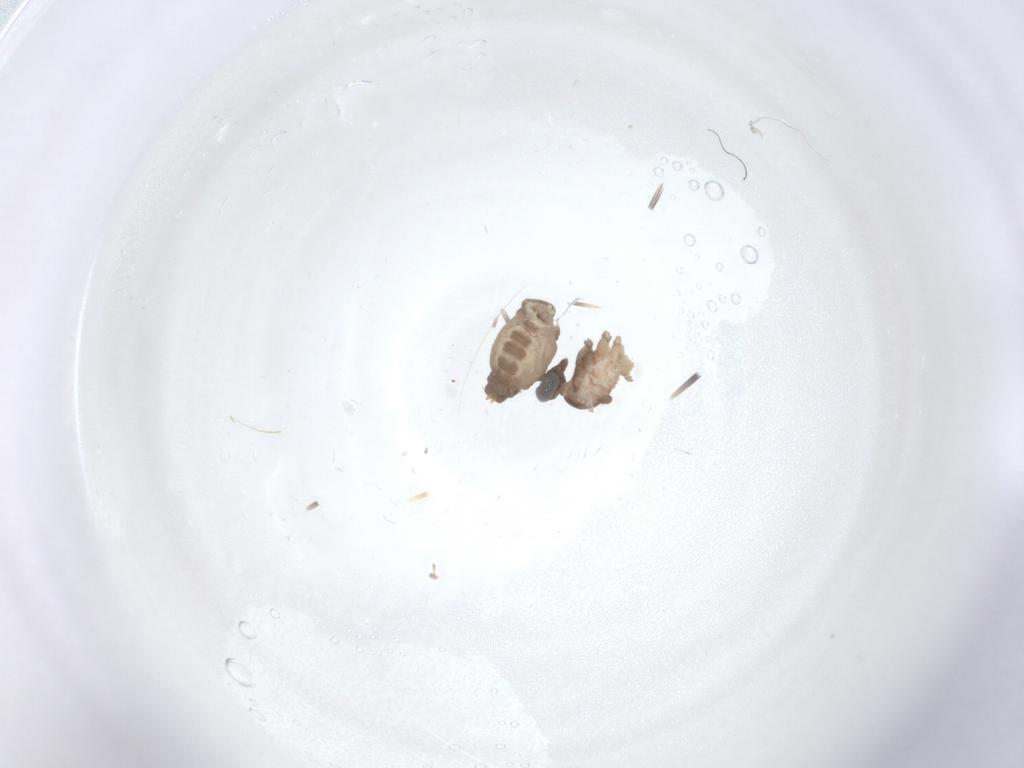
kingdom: Animalia
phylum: Arthropoda
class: Insecta
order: Diptera
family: Cecidomyiidae
